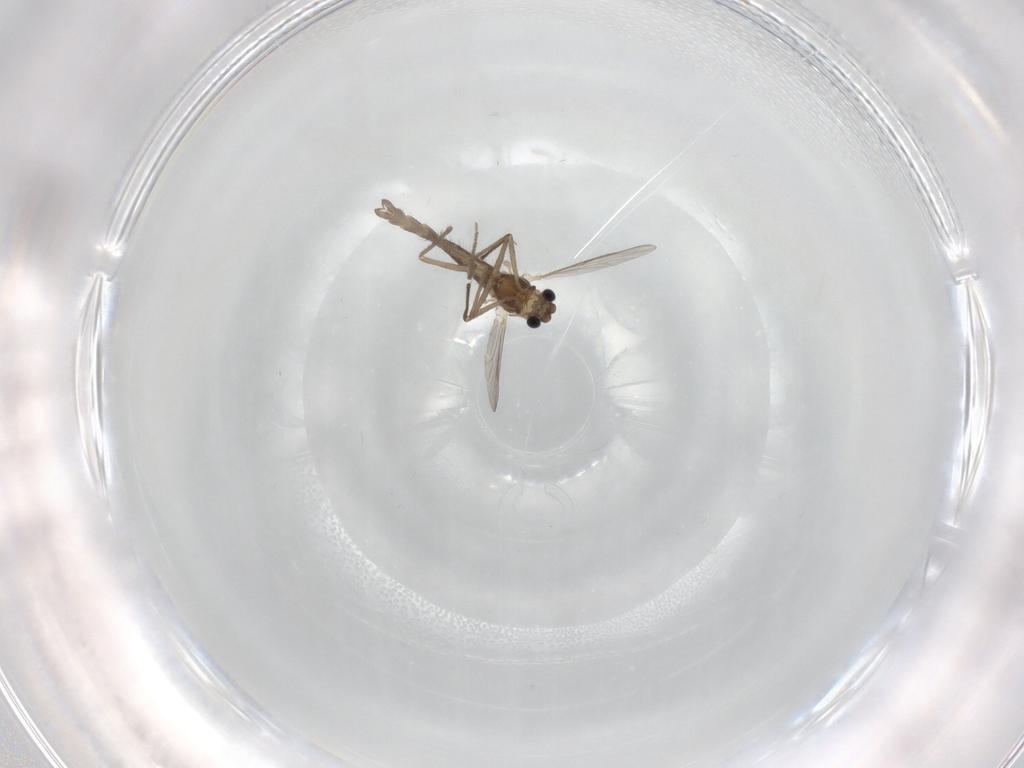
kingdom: Animalia
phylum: Arthropoda
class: Insecta
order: Diptera
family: Chironomidae
